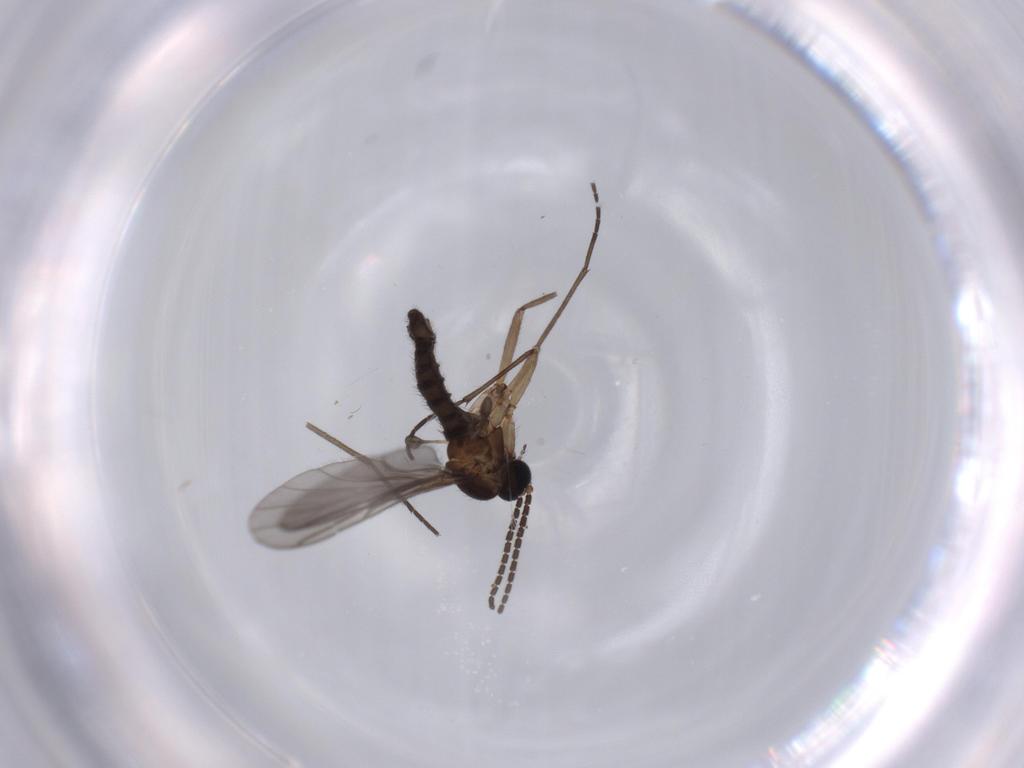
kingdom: Animalia
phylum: Arthropoda
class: Insecta
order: Diptera
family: Sciaridae
